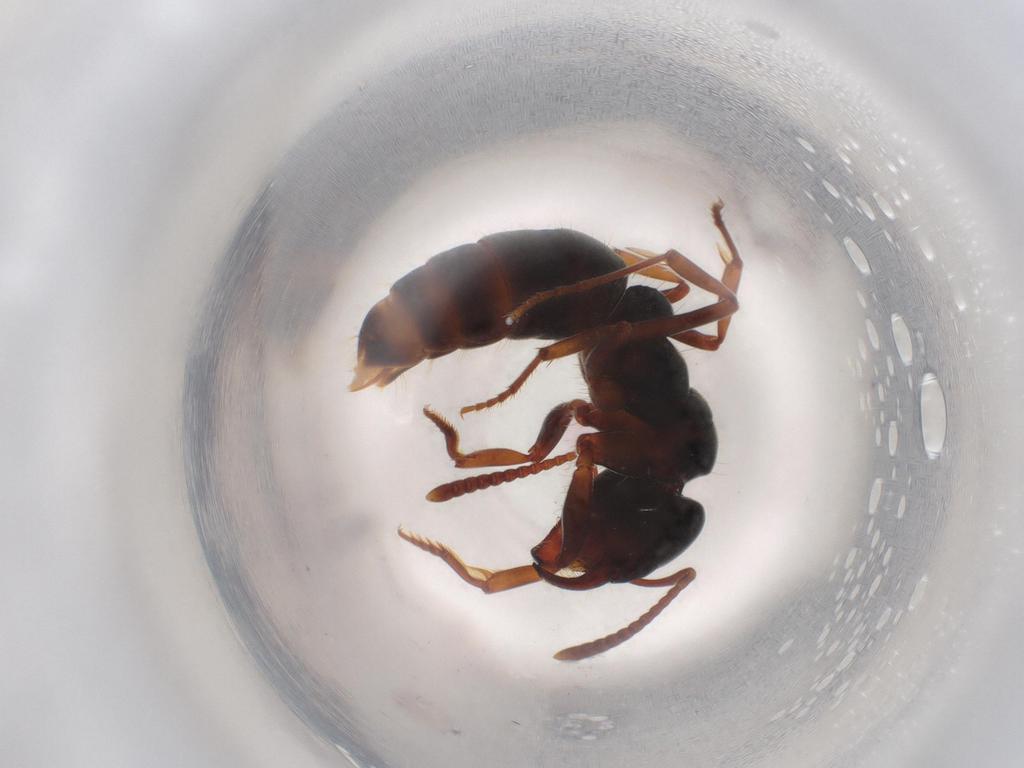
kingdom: Animalia
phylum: Arthropoda
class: Insecta
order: Hymenoptera
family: Formicidae
